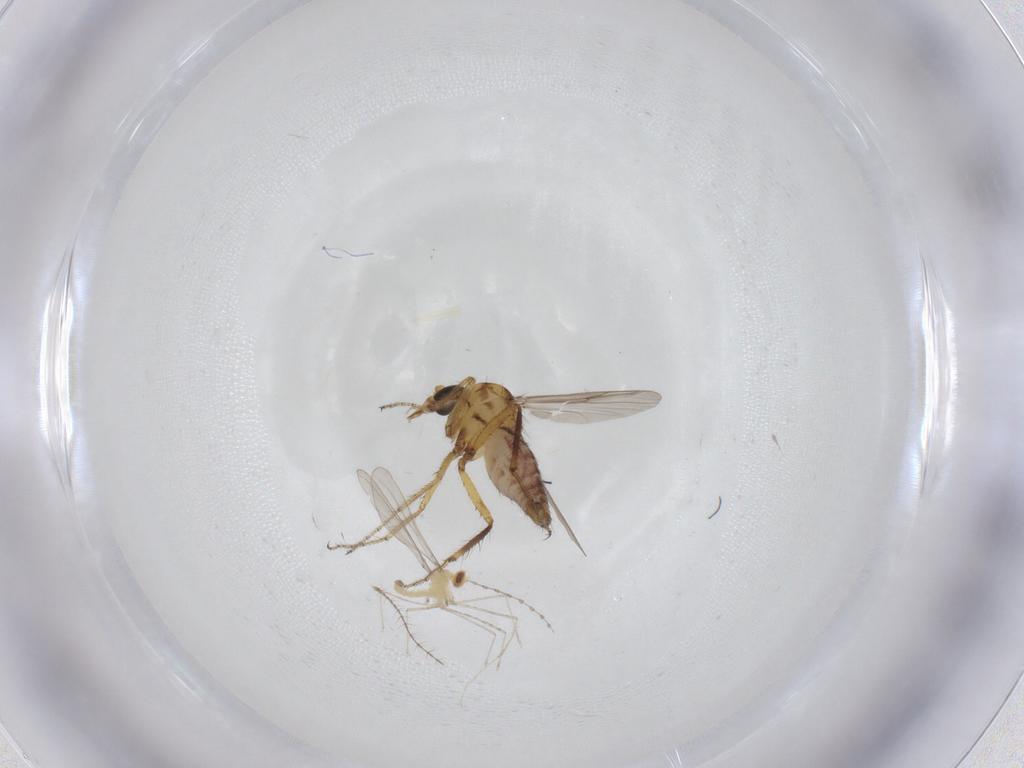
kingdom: Animalia
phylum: Arthropoda
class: Insecta
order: Diptera
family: Ceratopogonidae
